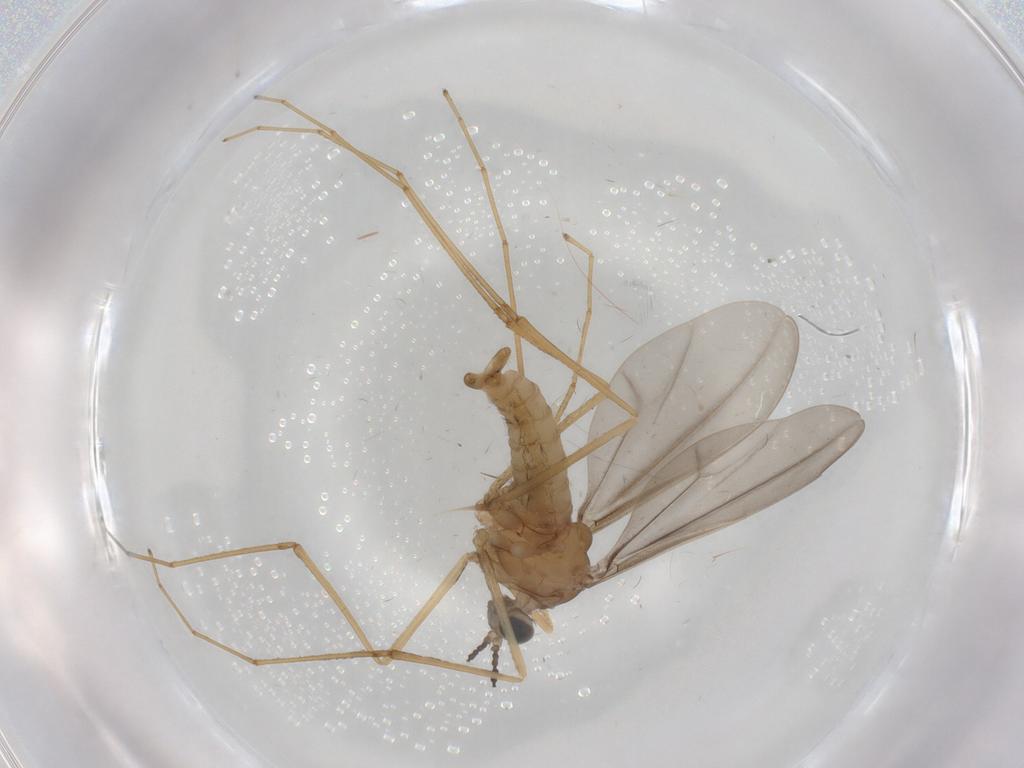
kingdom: Animalia
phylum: Arthropoda
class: Insecta
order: Diptera
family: Cecidomyiidae
